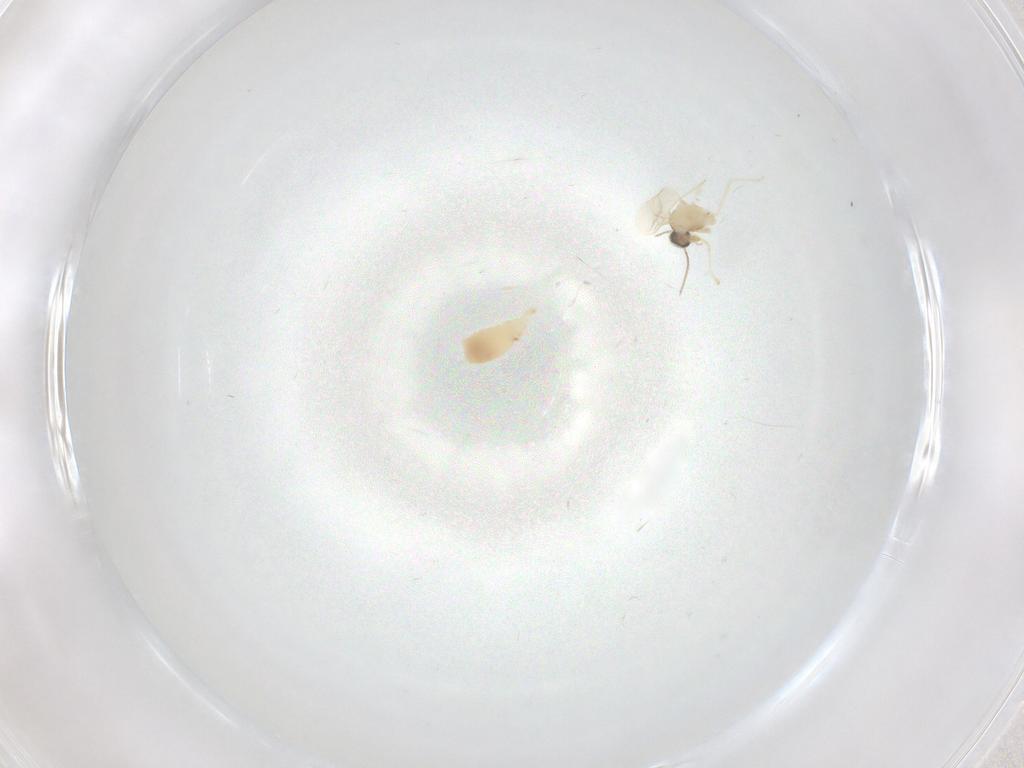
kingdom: Animalia
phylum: Arthropoda
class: Insecta
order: Diptera
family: Cecidomyiidae
